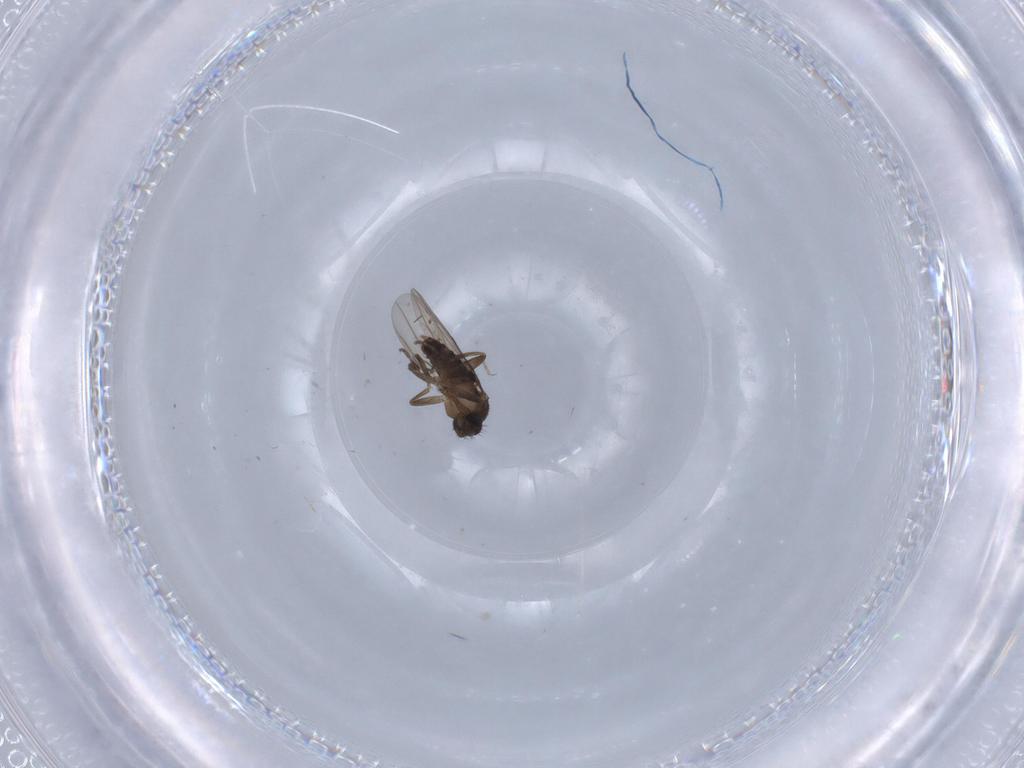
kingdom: Animalia
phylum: Arthropoda
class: Insecta
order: Diptera
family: Phoridae
